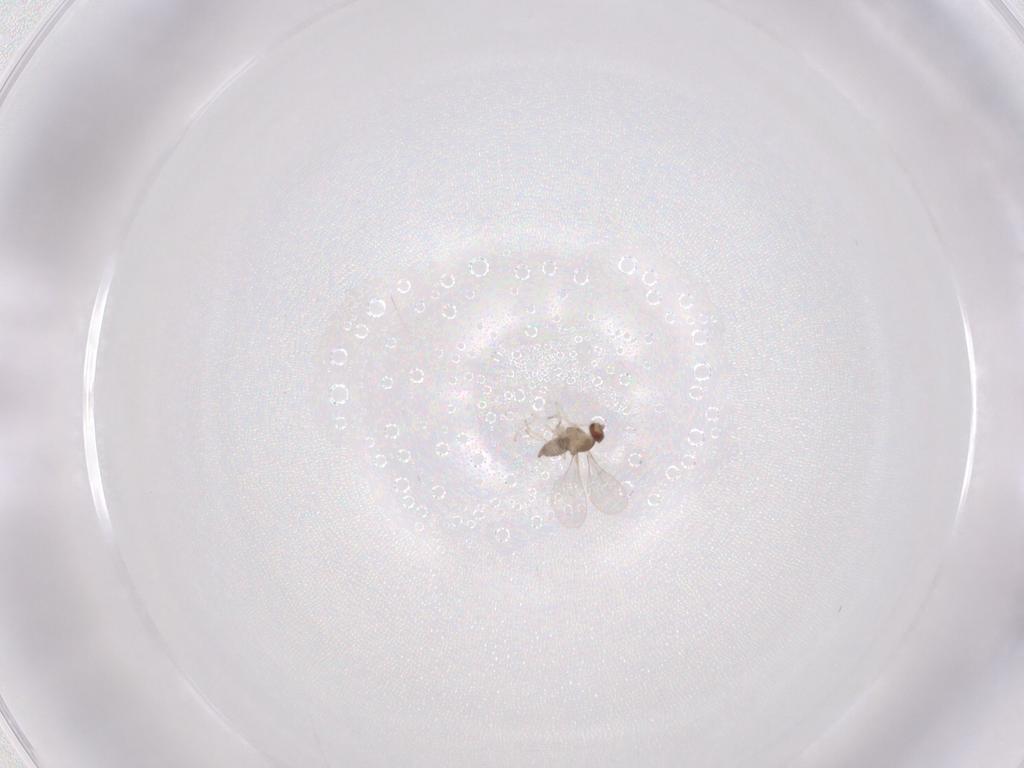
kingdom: Animalia
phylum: Arthropoda
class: Insecta
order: Diptera
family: Cecidomyiidae
